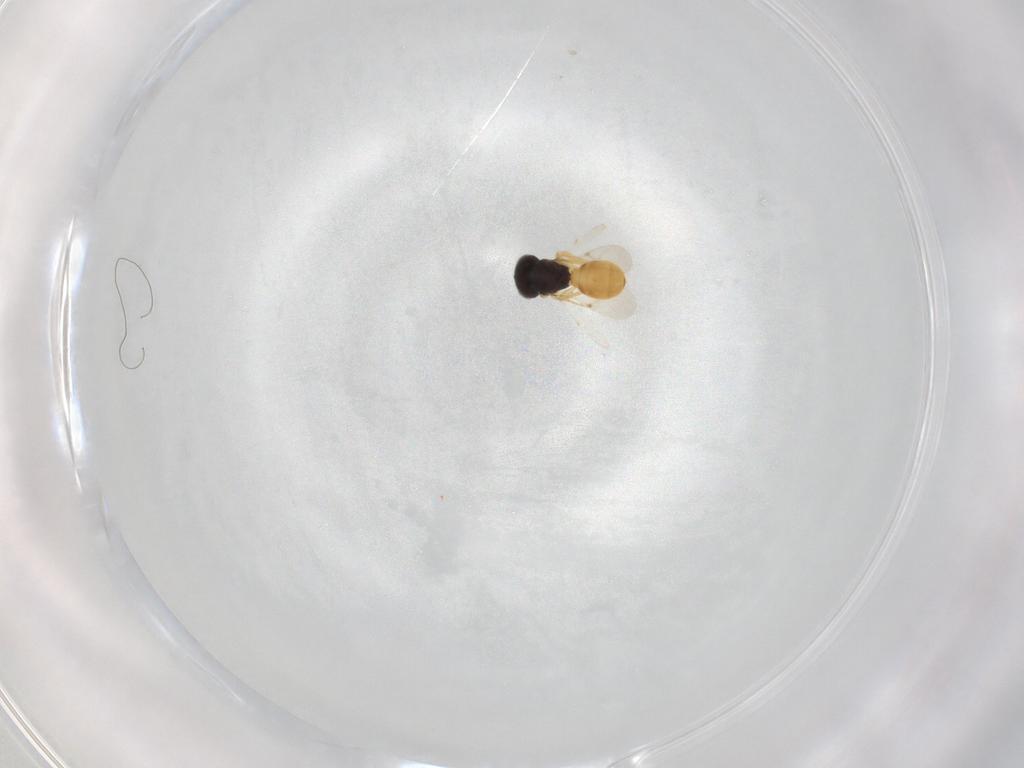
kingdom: Animalia
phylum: Arthropoda
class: Insecta
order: Hymenoptera
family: Scelionidae
